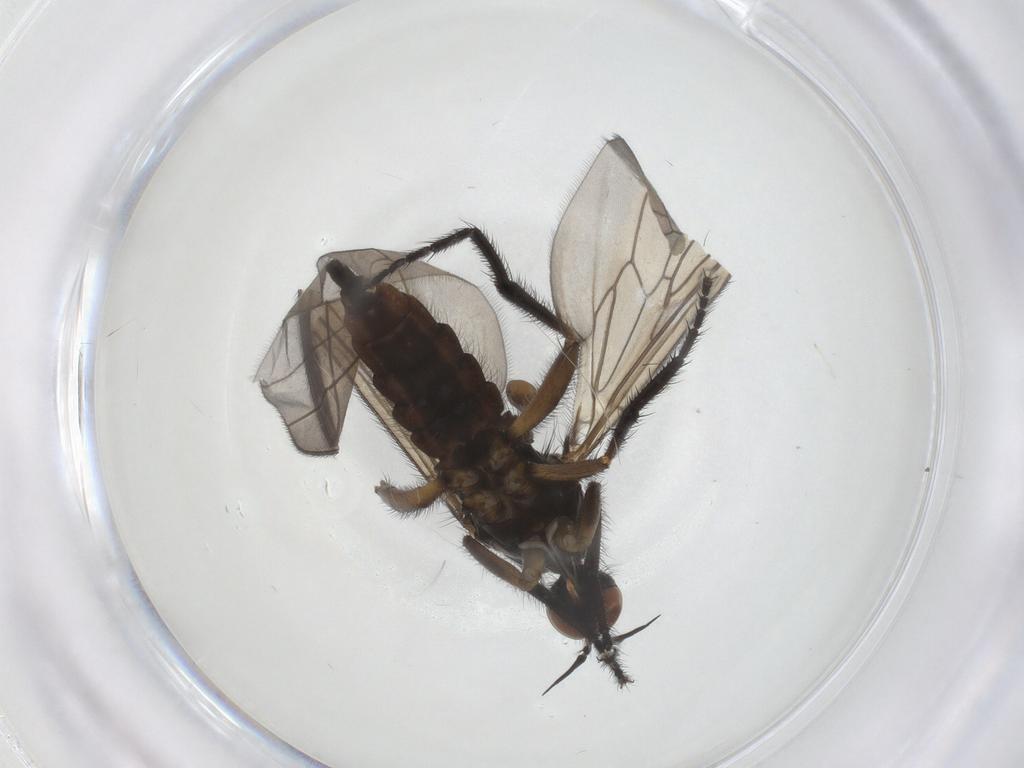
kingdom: Animalia
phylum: Arthropoda
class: Insecta
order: Diptera
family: Empididae
